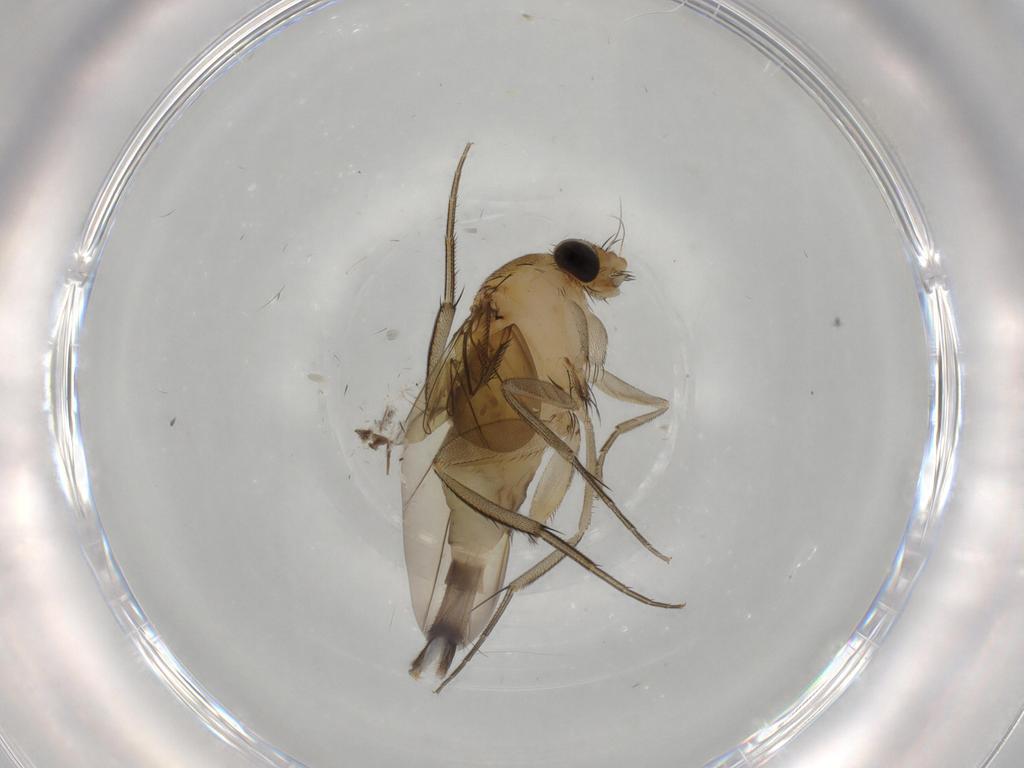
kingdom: Animalia
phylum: Arthropoda
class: Insecta
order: Diptera
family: Phoridae
